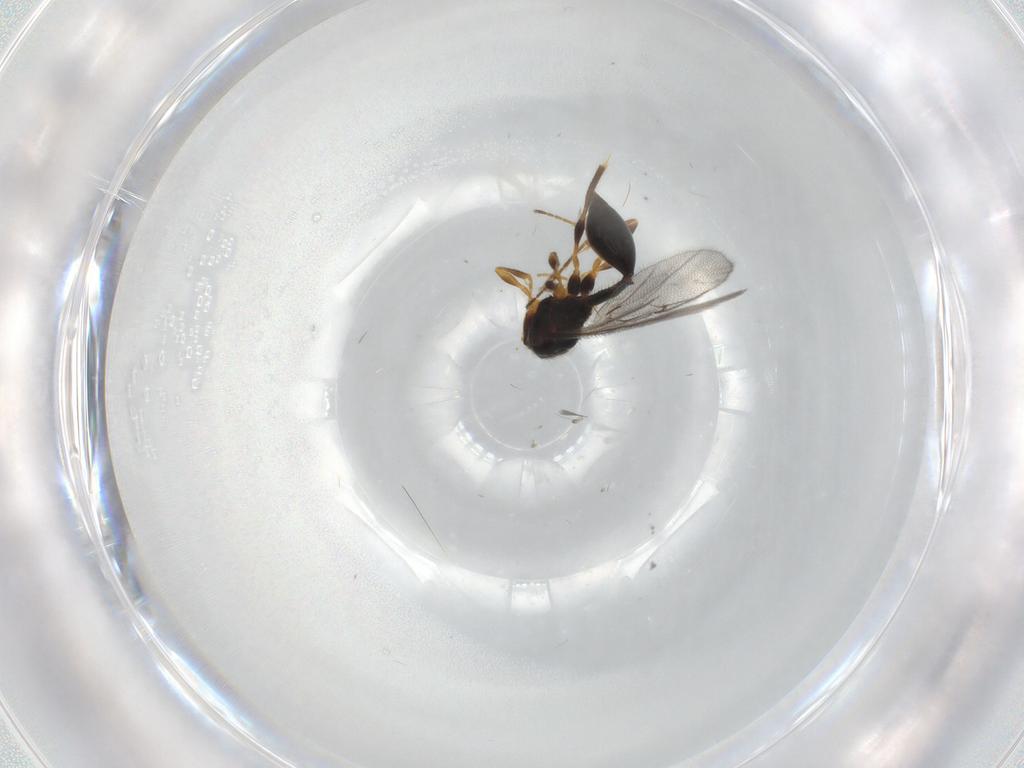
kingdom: Animalia
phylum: Arthropoda
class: Insecta
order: Hymenoptera
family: Diapriidae
